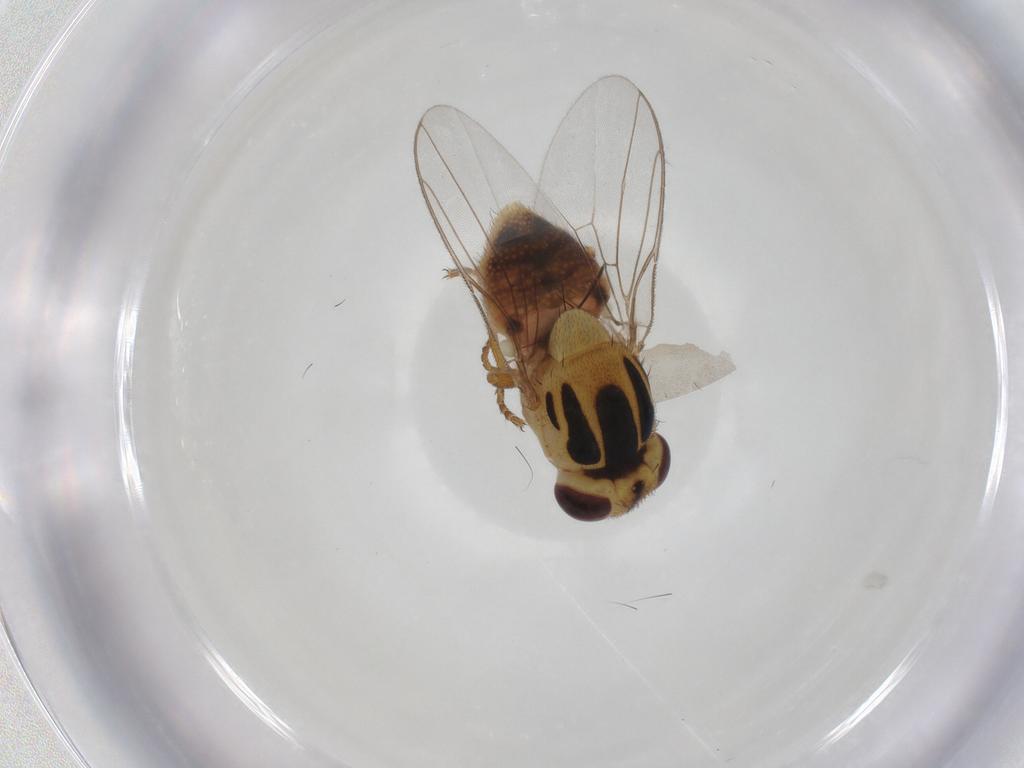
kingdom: Animalia
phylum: Arthropoda
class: Insecta
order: Diptera
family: Chloropidae
